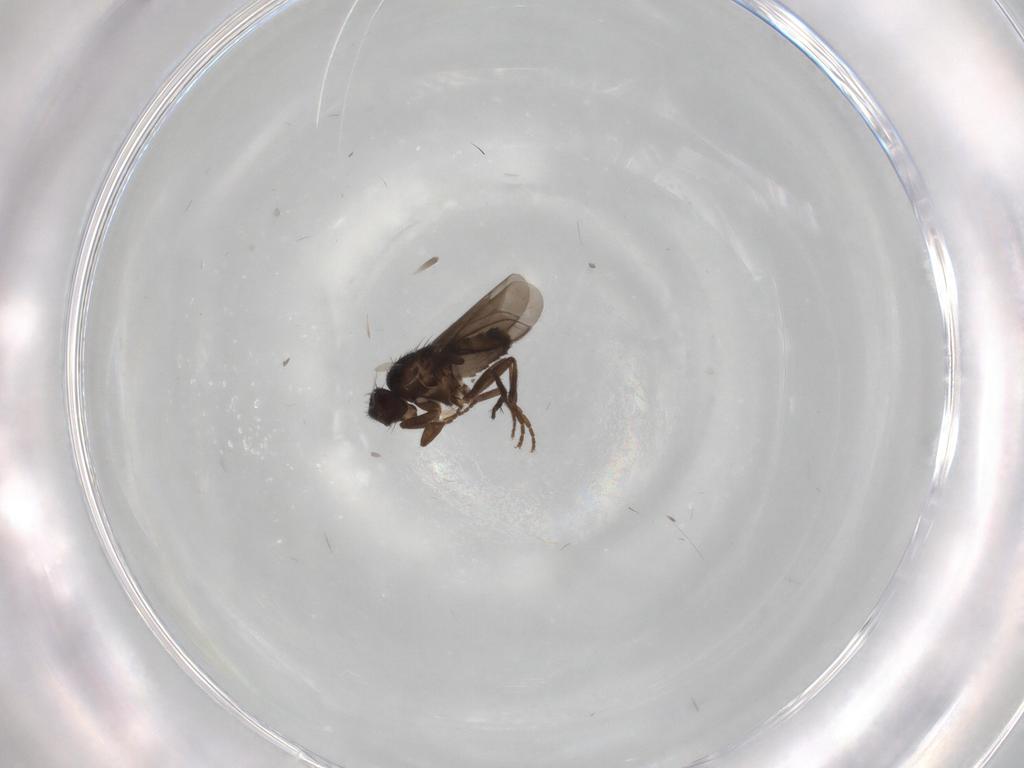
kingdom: Animalia
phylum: Arthropoda
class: Insecta
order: Diptera
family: Sphaeroceridae
